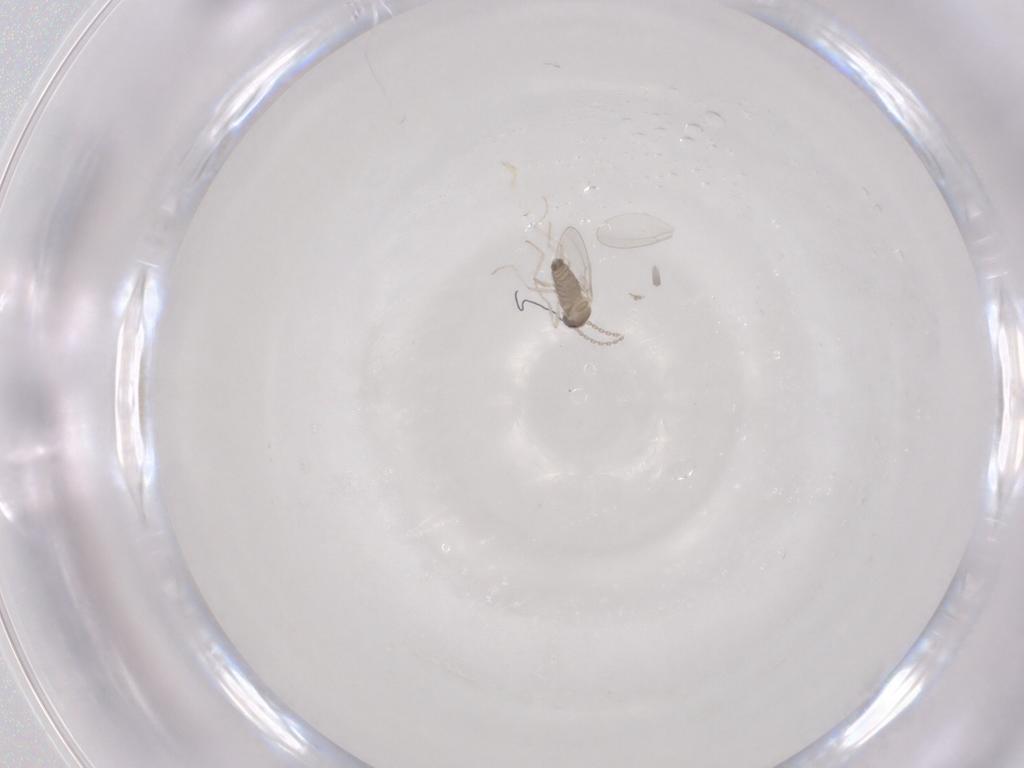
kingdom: Animalia
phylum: Arthropoda
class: Insecta
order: Diptera
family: Cecidomyiidae
